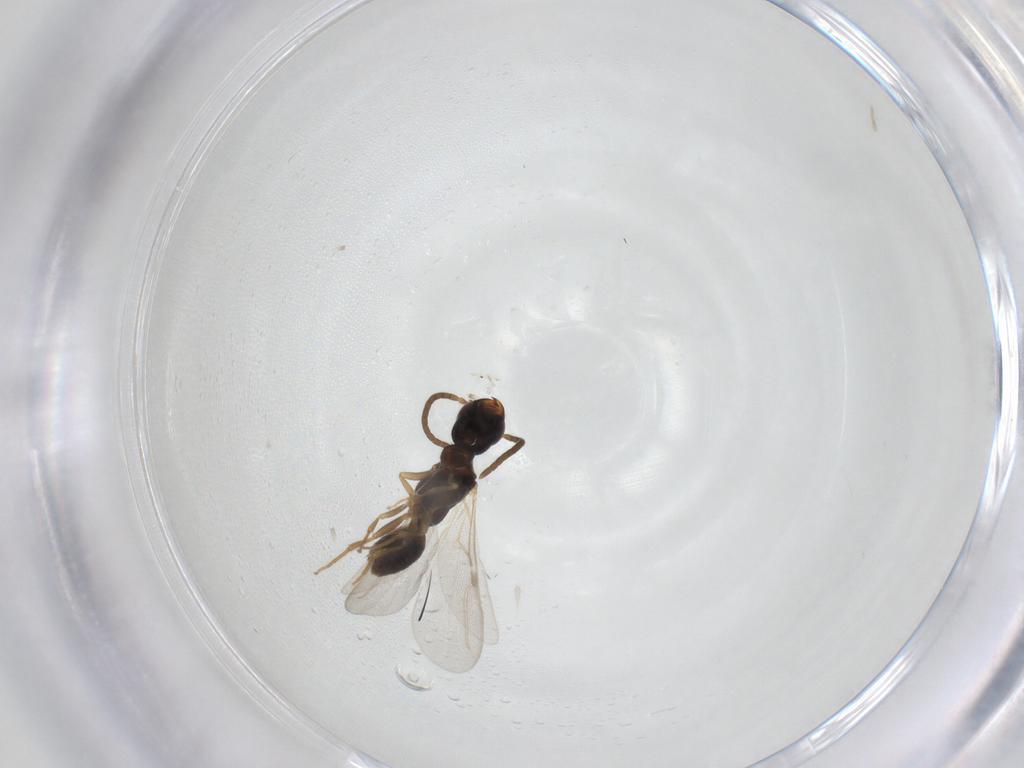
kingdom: Animalia
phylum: Arthropoda
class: Insecta
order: Hymenoptera
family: Bethylidae
